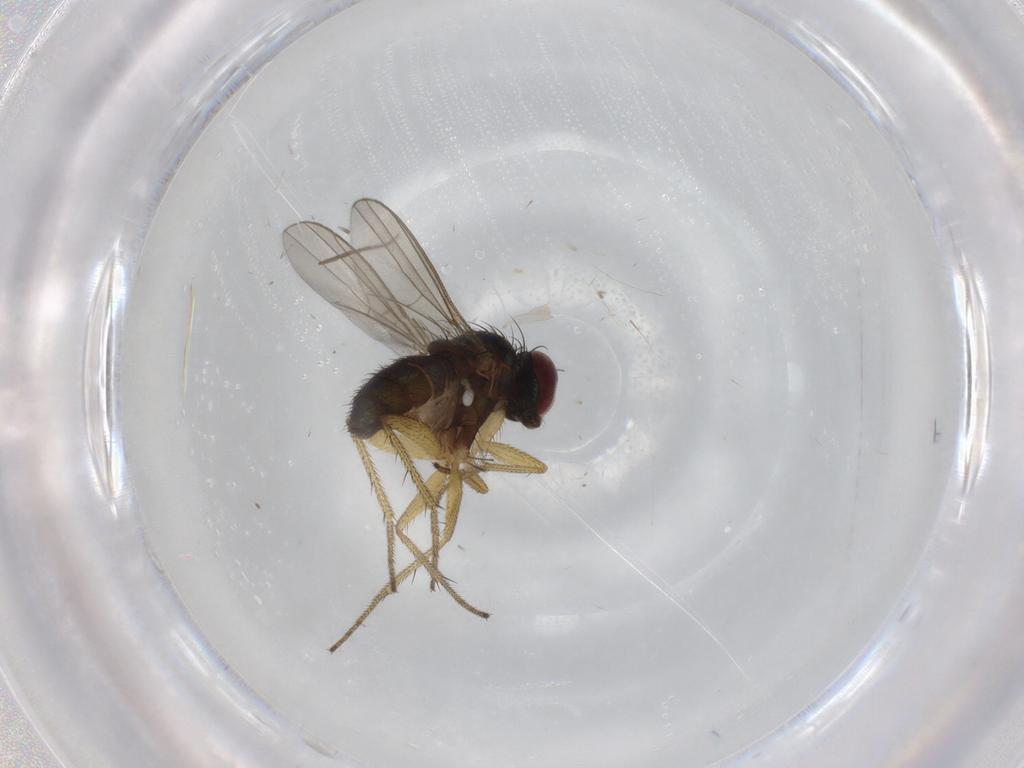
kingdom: Animalia
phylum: Arthropoda
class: Insecta
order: Diptera
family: Dolichopodidae
